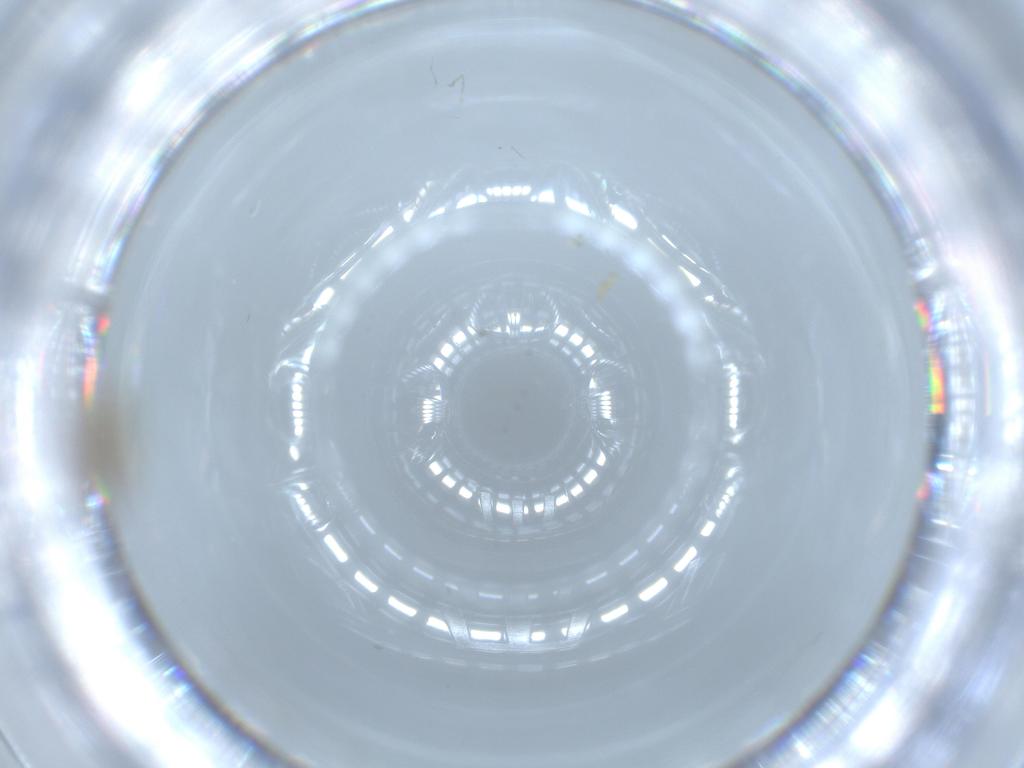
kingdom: Animalia
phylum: Arthropoda
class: Insecta
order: Hemiptera
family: Acanaloniidae
